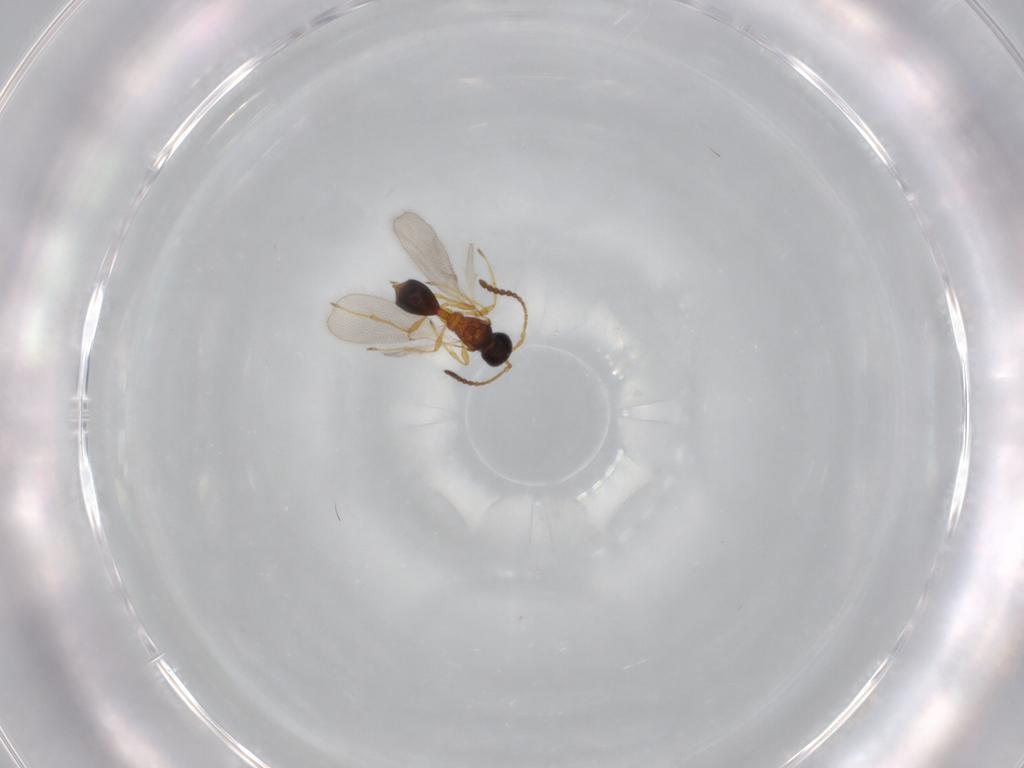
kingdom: Animalia
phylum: Arthropoda
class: Insecta
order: Hymenoptera
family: Diapriidae
